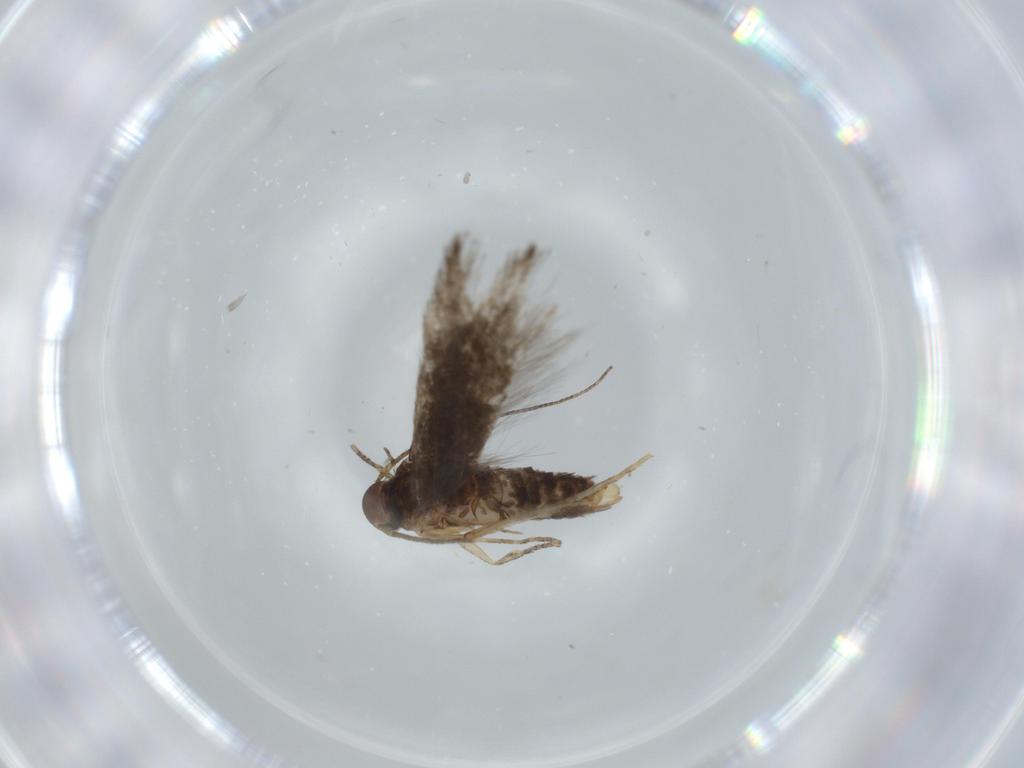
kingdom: Animalia
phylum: Arthropoda
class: Insecta
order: Lepidoptera
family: Gelechiidae
